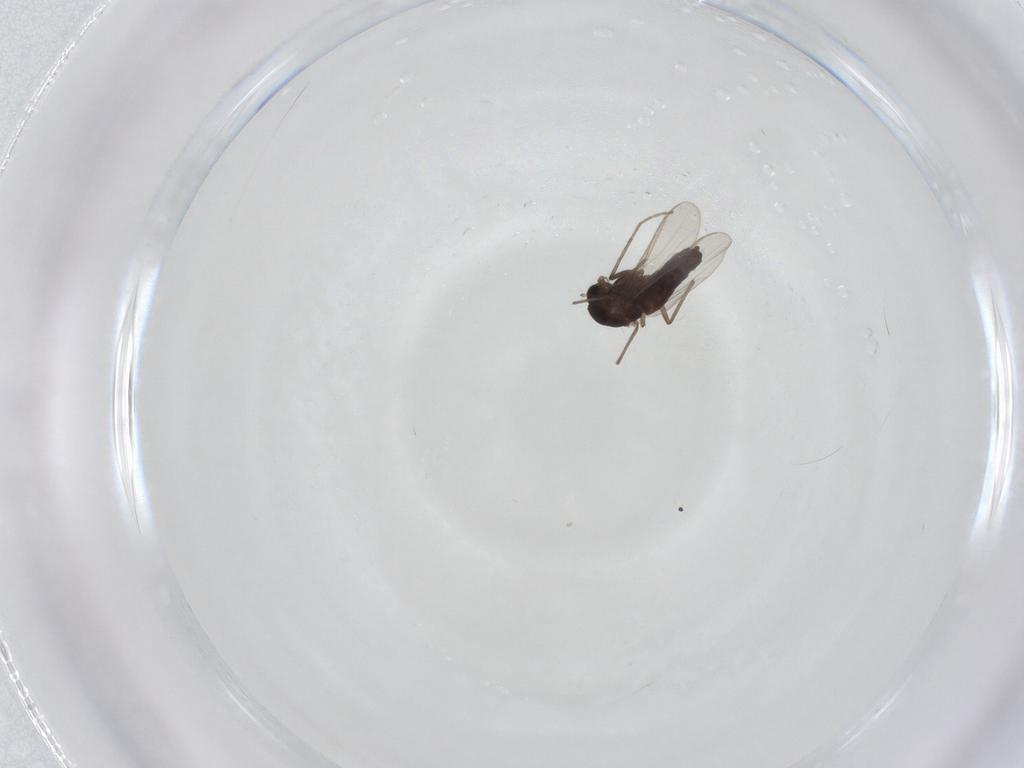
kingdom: Animalia
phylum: Arthropoda
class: Insecta
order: Diptera
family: Chironomidae
